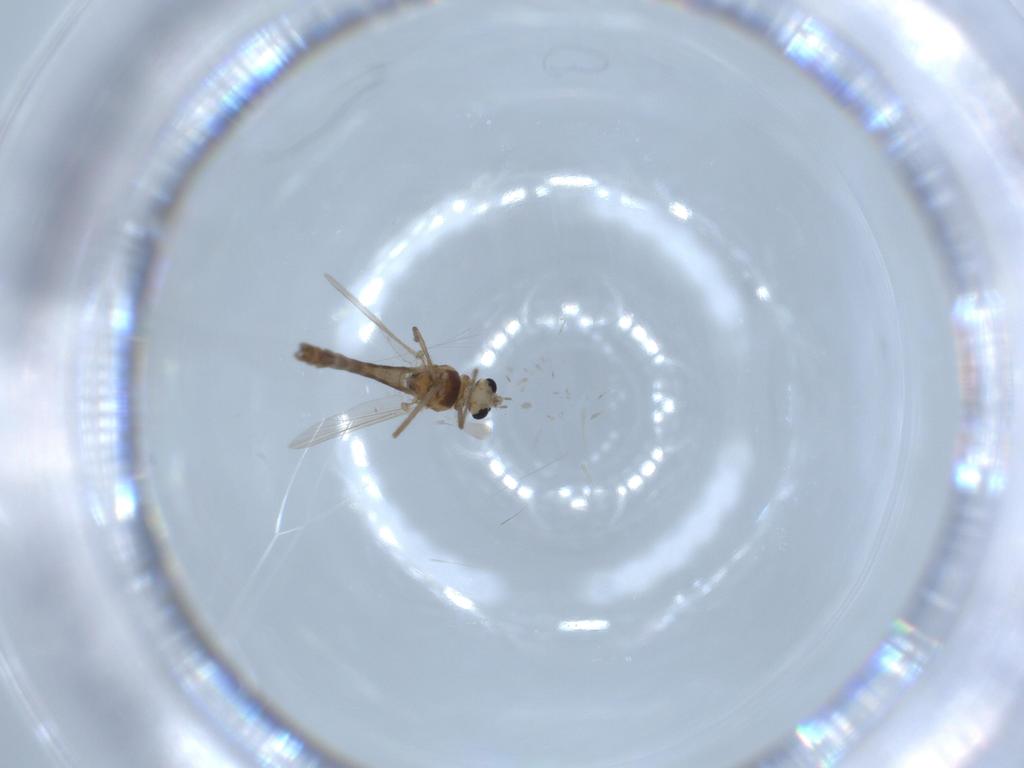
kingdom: Animalia
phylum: Arthropoda
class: Insecta
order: Diptera
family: Chironomidae
